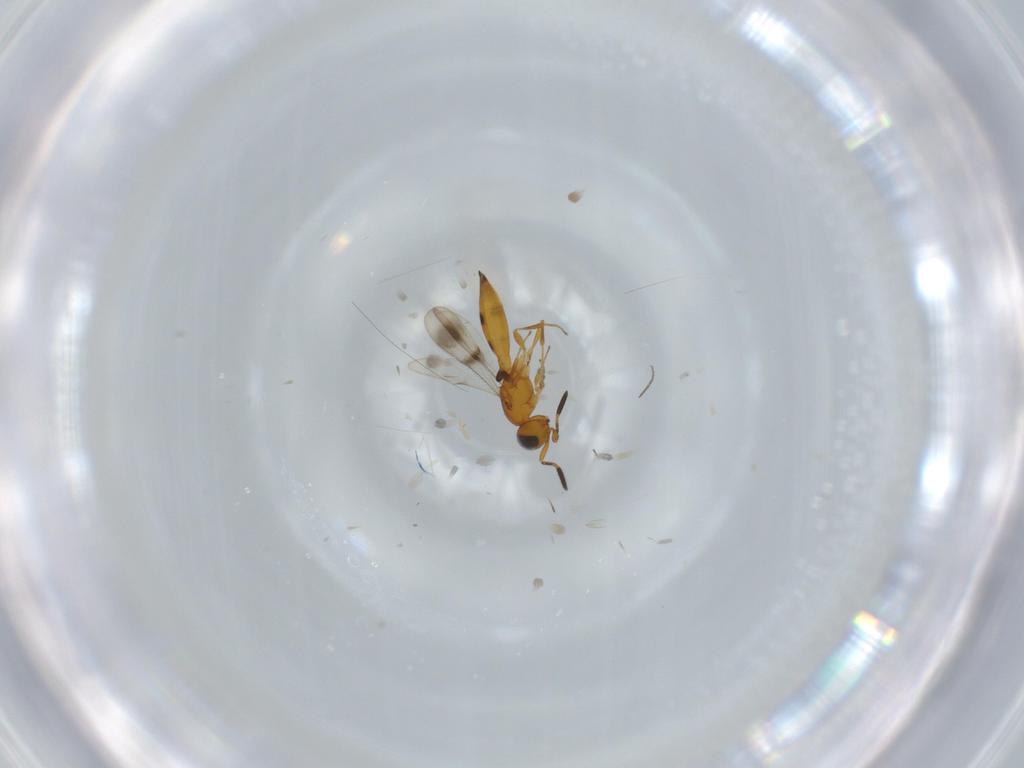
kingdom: Animalia
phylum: Arthropoda
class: Insecta
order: Hymenoptera
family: Scelionidae
